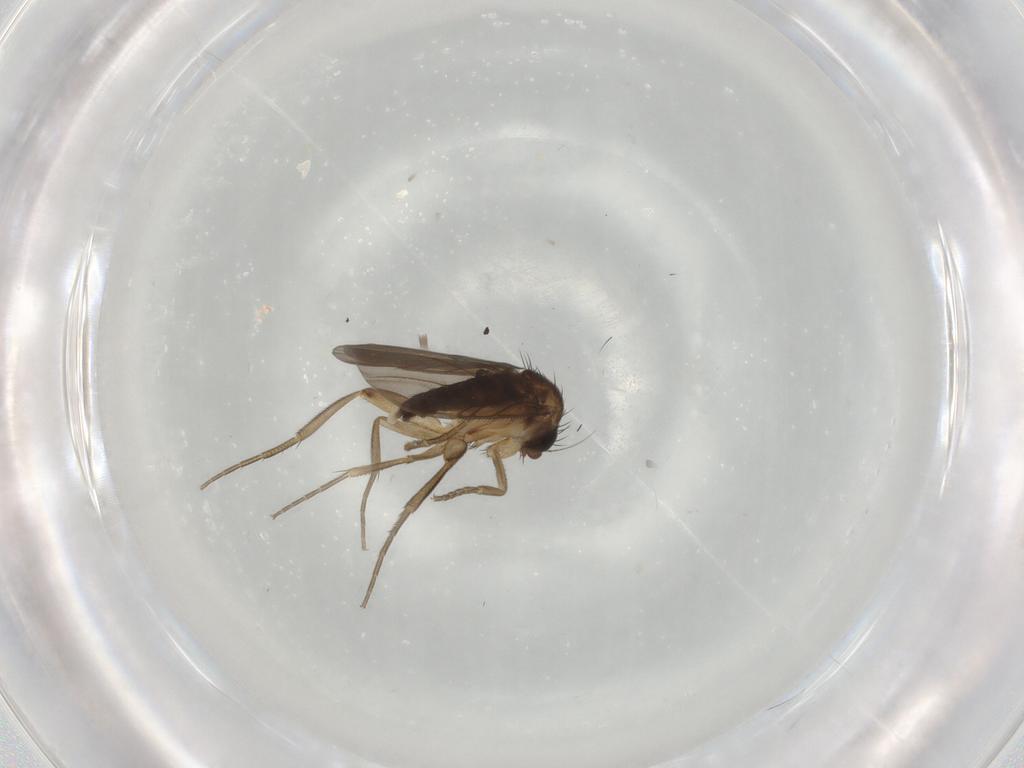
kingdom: Animalia
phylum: Arthropoda
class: Insecta
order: Diptera
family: Phoridae
